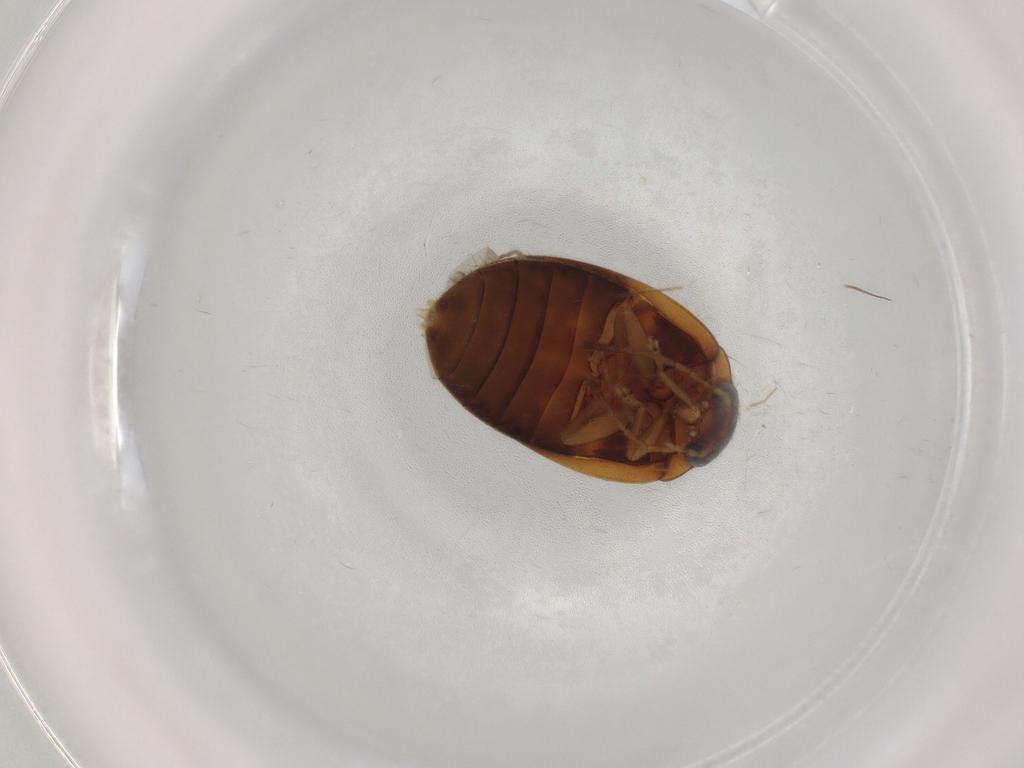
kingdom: Animalia
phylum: Arthropoda
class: Insecta
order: Coleoptera
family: Scirtidae
